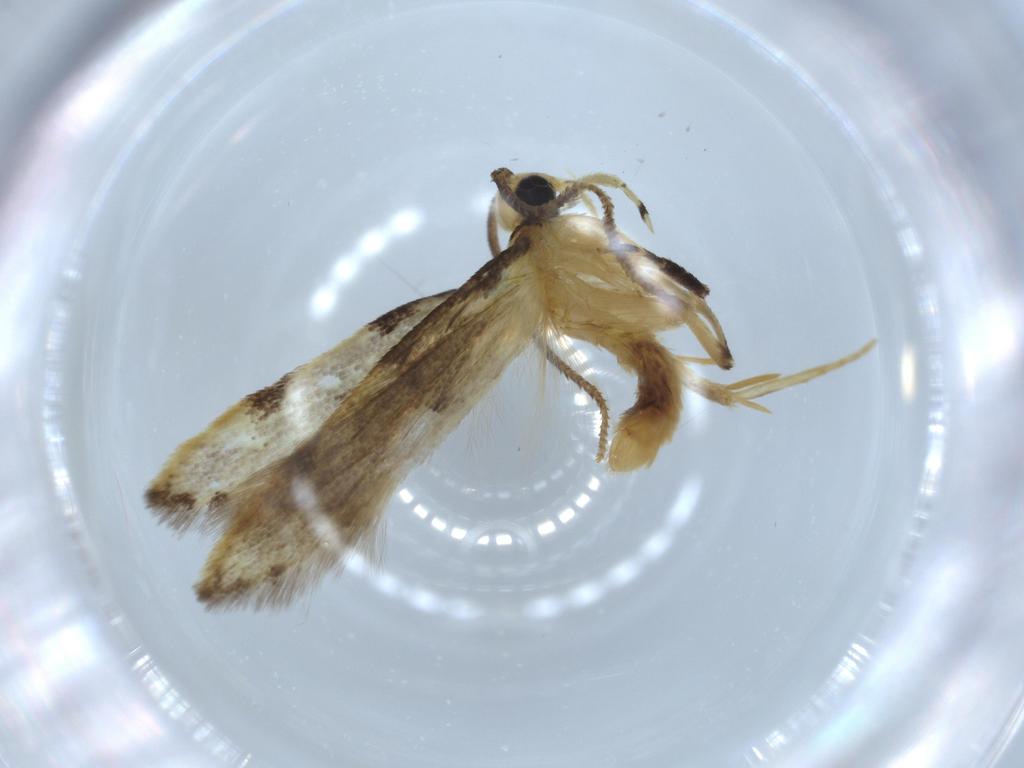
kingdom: Animalia
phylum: Arthropoda
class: Insecta
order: Lepidoptera
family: Autostichidae
